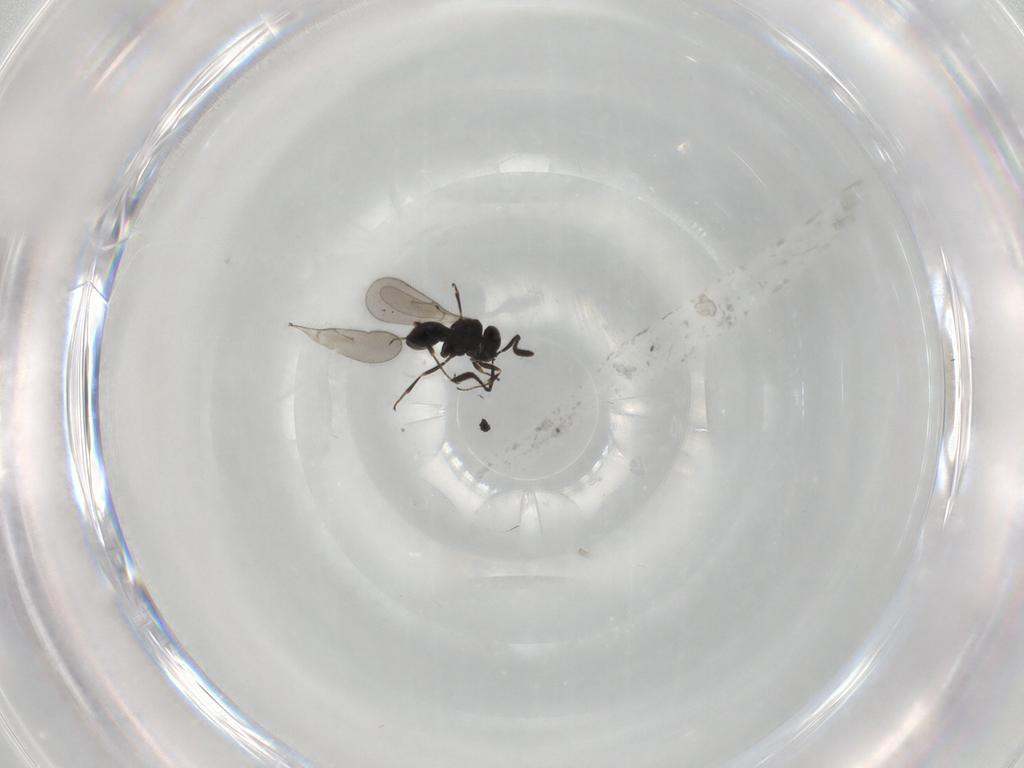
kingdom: Animalia
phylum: Arthropoda
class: Insecta
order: Hymenoptera
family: Scelionidae
